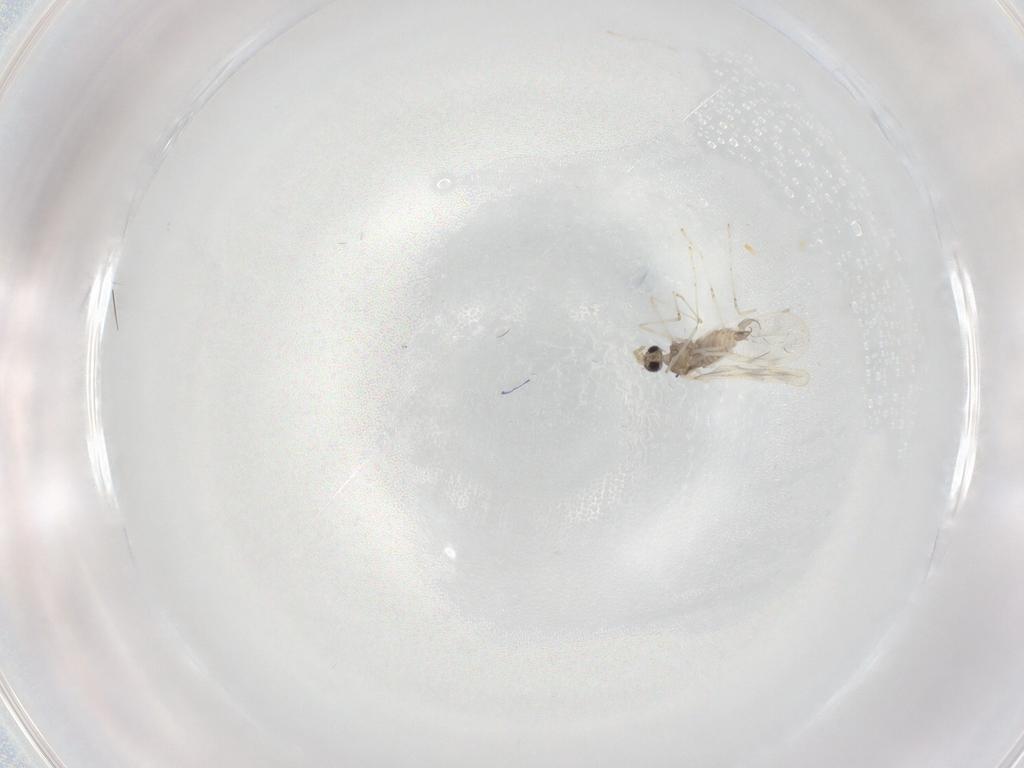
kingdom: Animalia
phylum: Arthropoda
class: Insecta
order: Diptera
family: Cecidomyiidae
